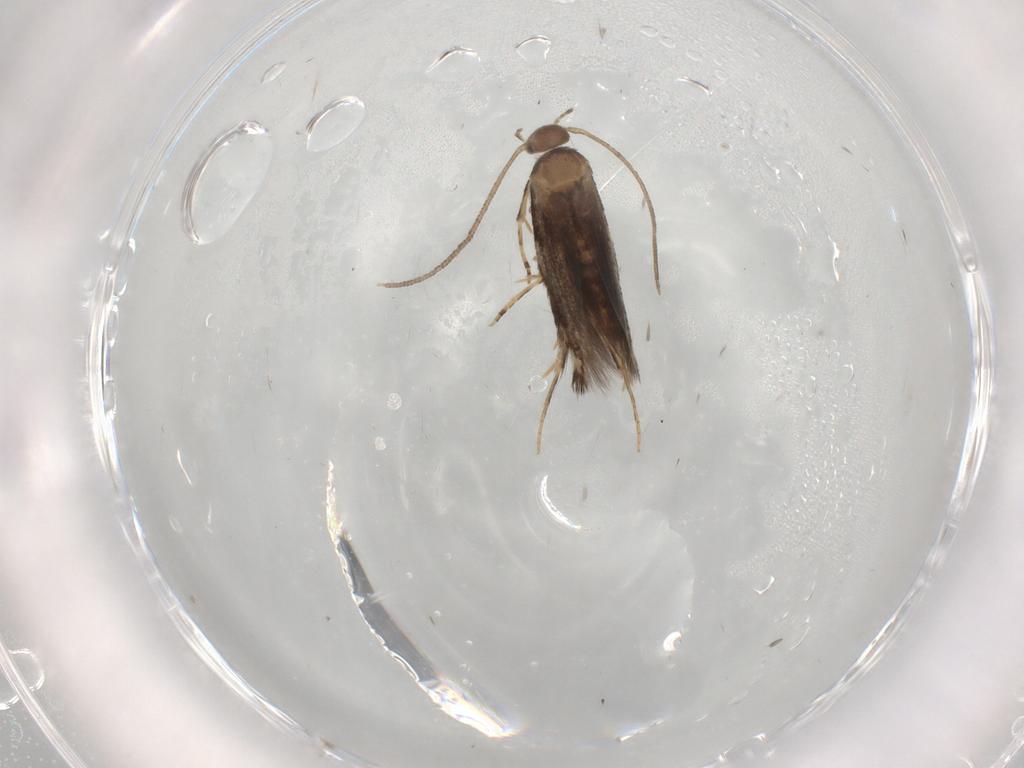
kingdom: Animalia
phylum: Arthropoda
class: Insecta
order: Lepidoptera
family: Elachistidae
